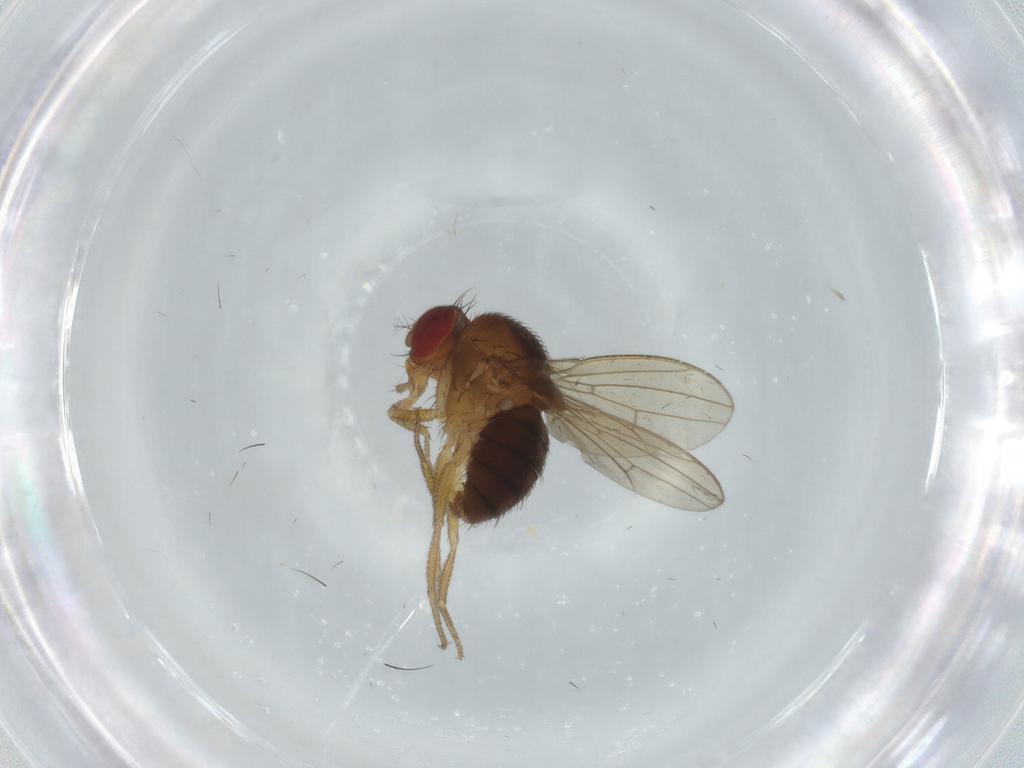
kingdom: Animalia
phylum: Arthropoda
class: Insecta
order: Diptera
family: Drosophilidae
